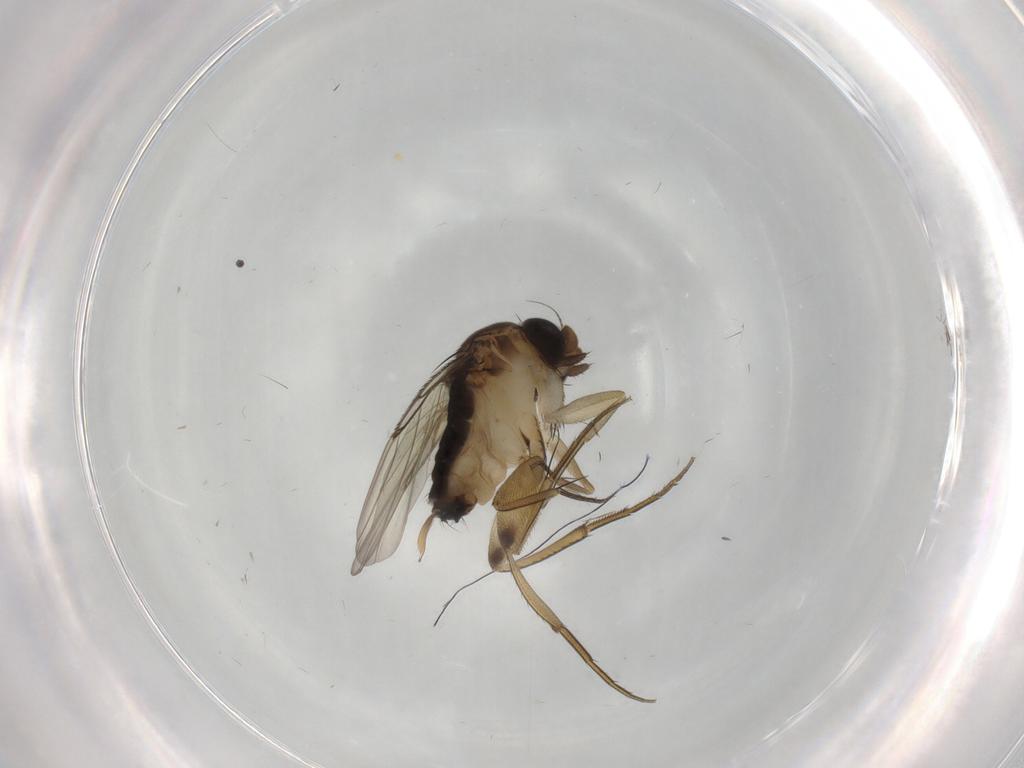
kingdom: Animalia
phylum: Arthropoda
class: Insecta
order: Diptera
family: Phoridae
